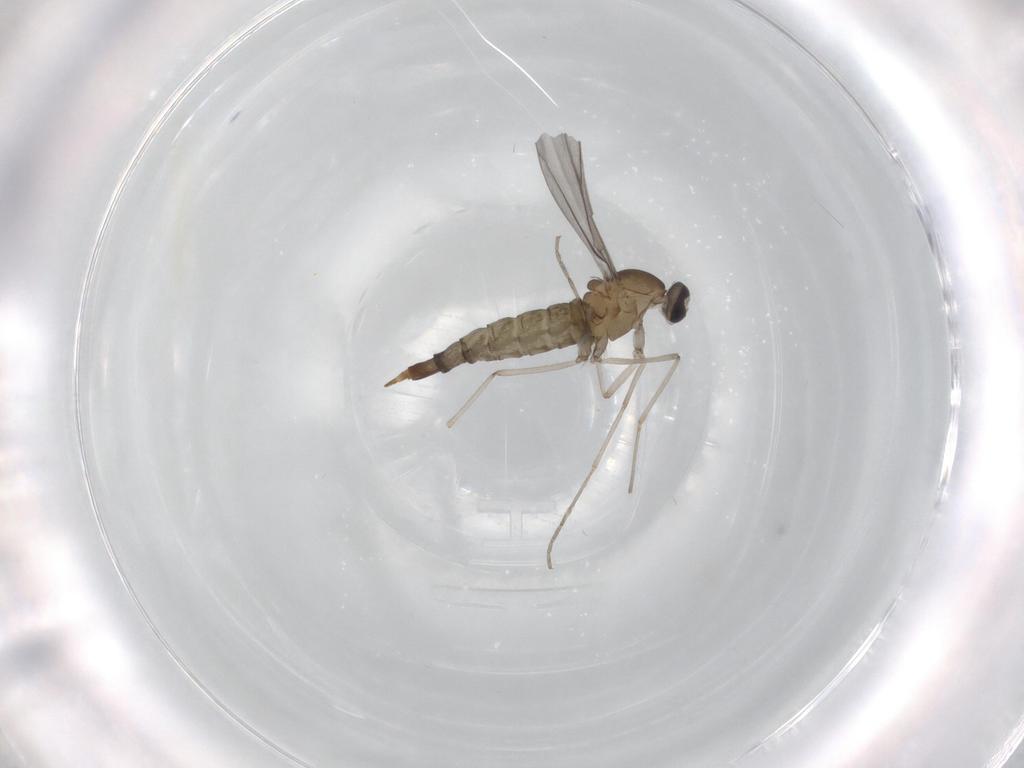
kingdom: Animalia
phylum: Arthropoda
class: Insecta
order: Diptera
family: Cecidomyiidae
